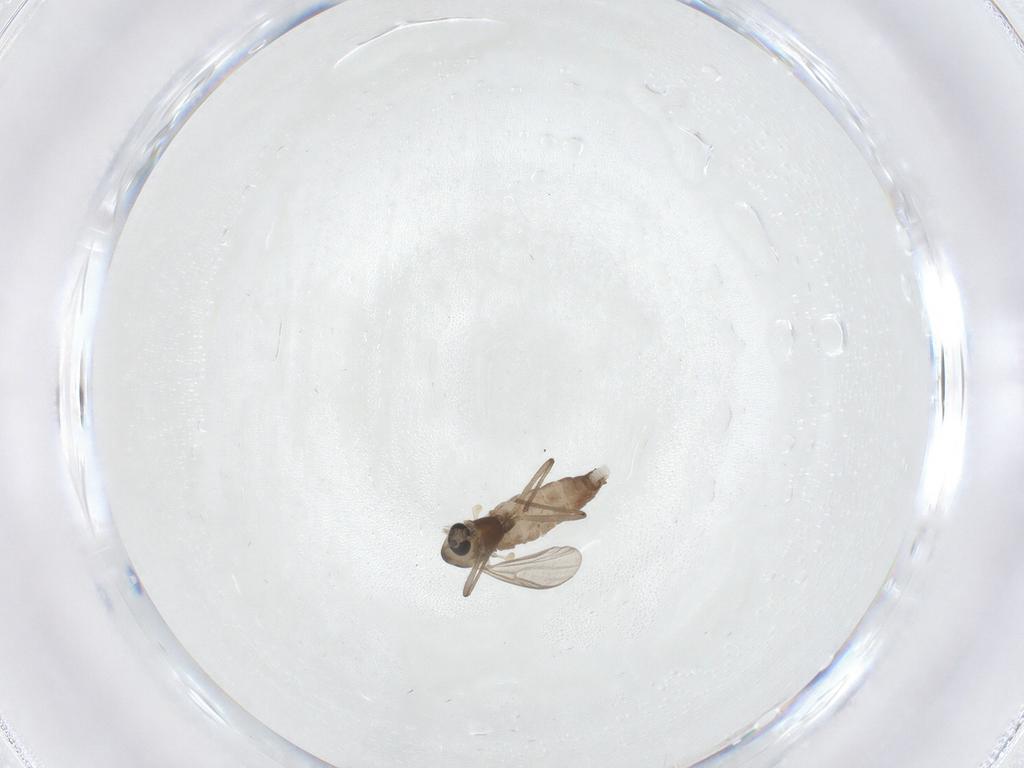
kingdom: Animalia
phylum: Arthropoda
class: Insecta
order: Diptera
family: Chironomidae
